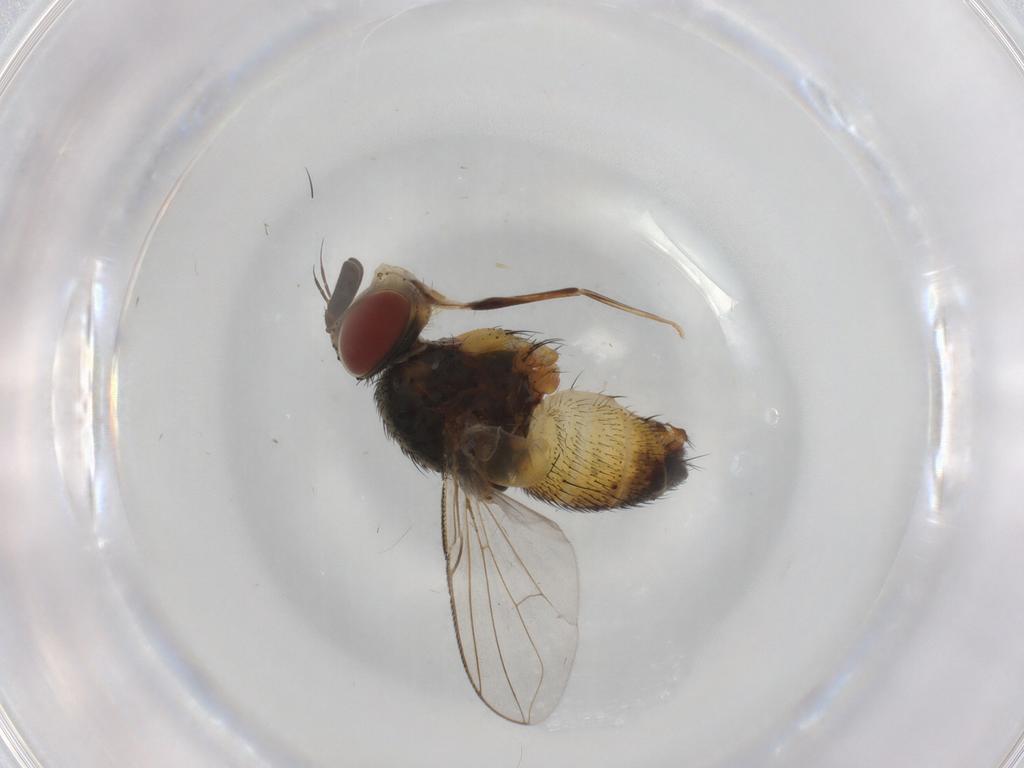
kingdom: Animalia
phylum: Arthropoda
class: Insecta
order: Diptera
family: Tachinidae
